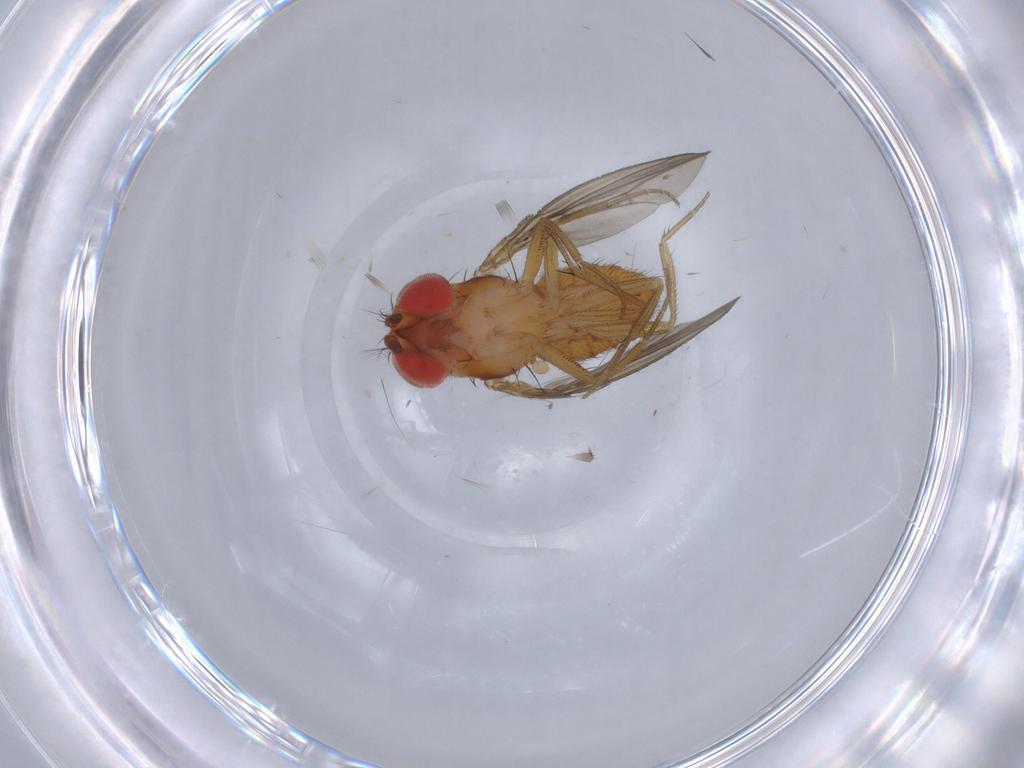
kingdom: Animalia
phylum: Arthropoda
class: Insecta
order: Diptera
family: Drosophilidae
